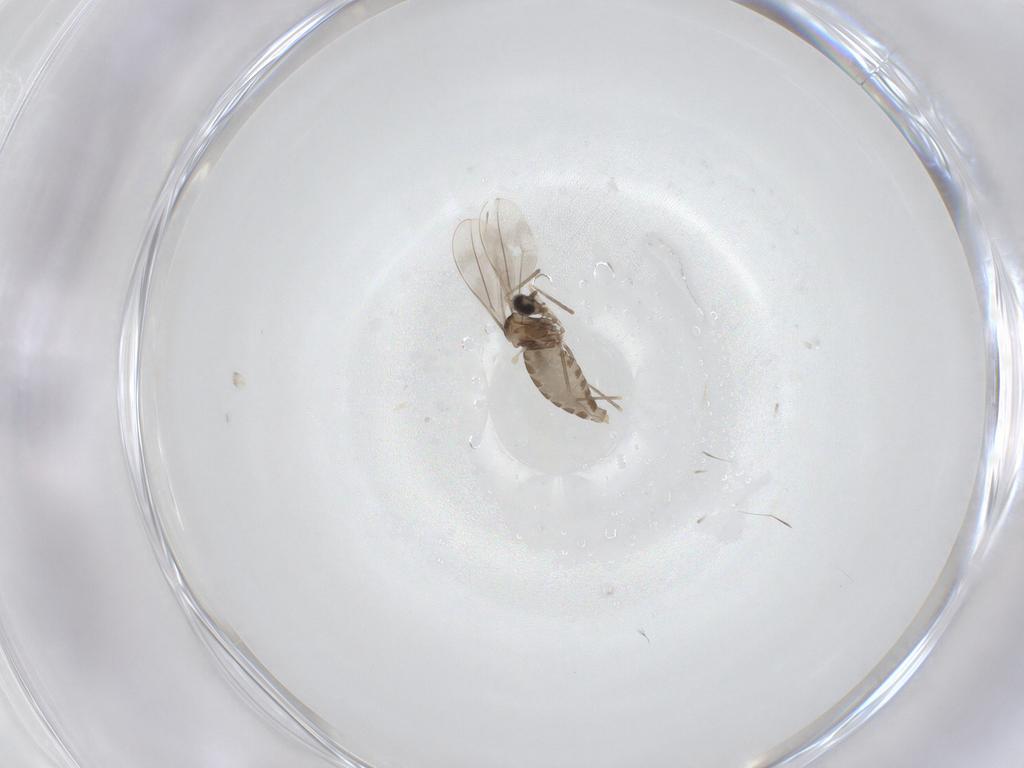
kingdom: Animalia
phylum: Arthropoda
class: Insecta
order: Diptera
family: Cecidomyiidae
